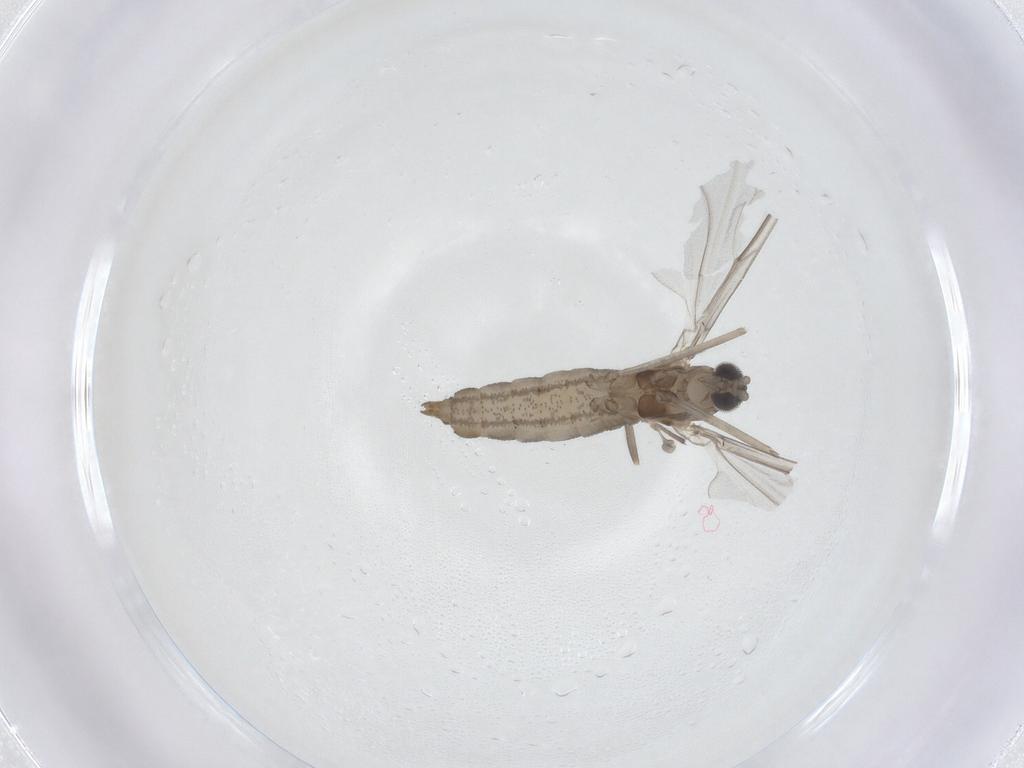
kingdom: Animalia
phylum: Arthropoda
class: Insecta
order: Diptera
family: Cecidomyiidae
